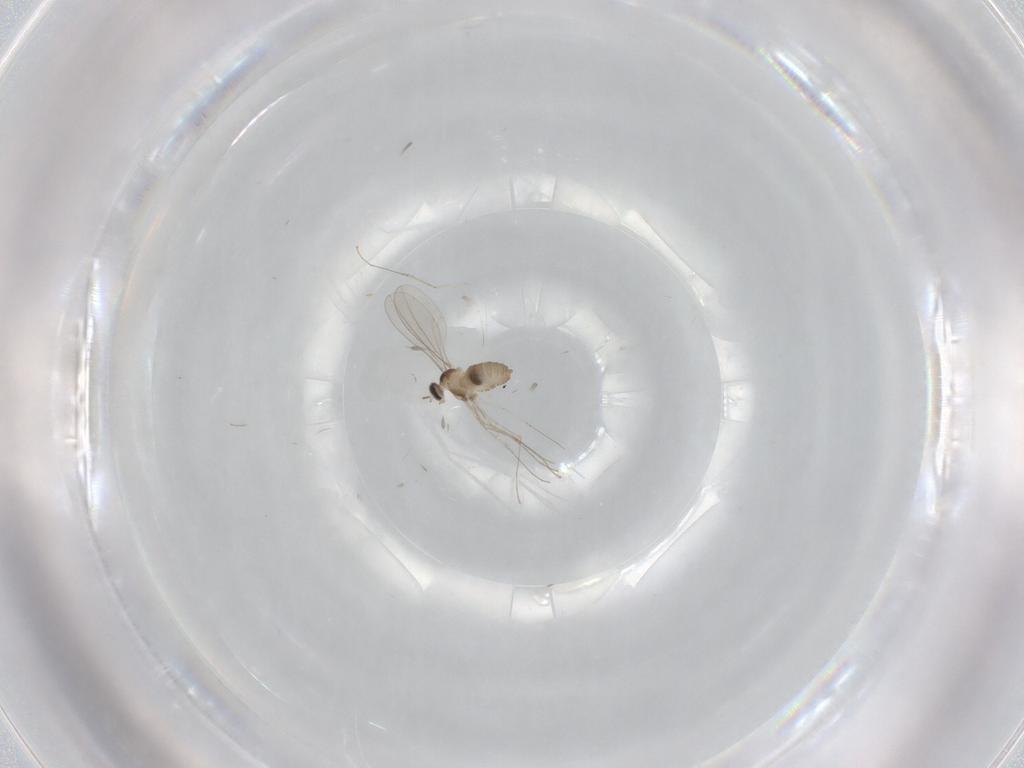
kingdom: Animalia
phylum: Arthropoda
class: Insecta
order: Diptera
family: Cecidomyiidae
